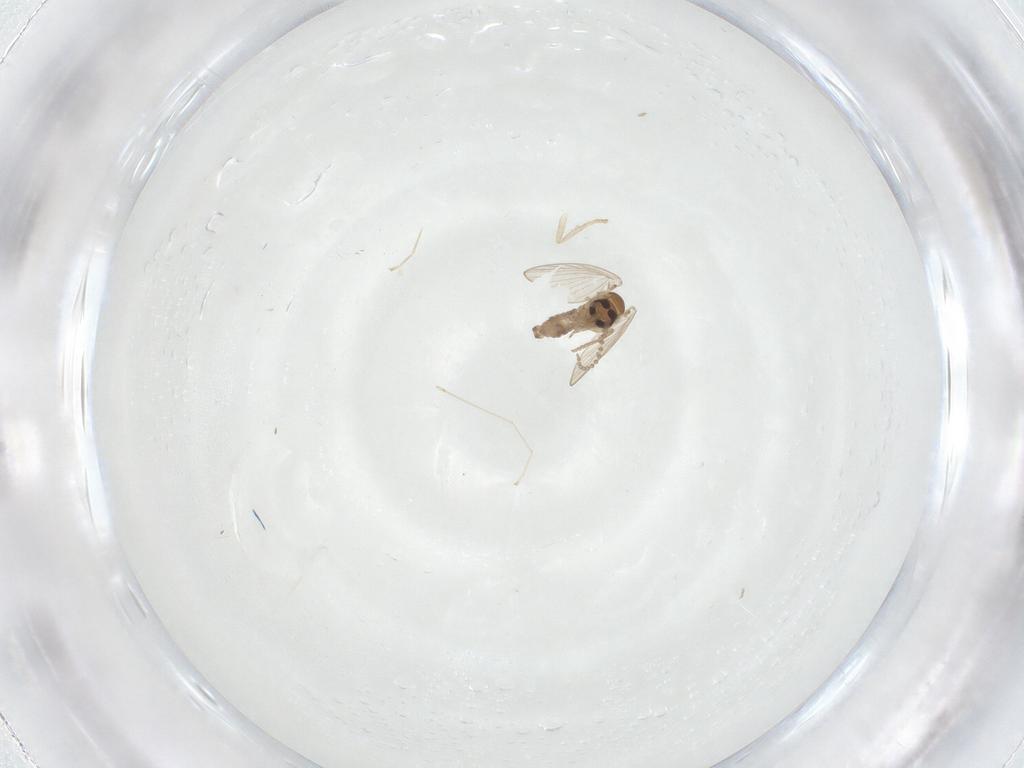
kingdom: Animalia
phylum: Arthropoda
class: Insecta
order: Diptera
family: Psychodidae
